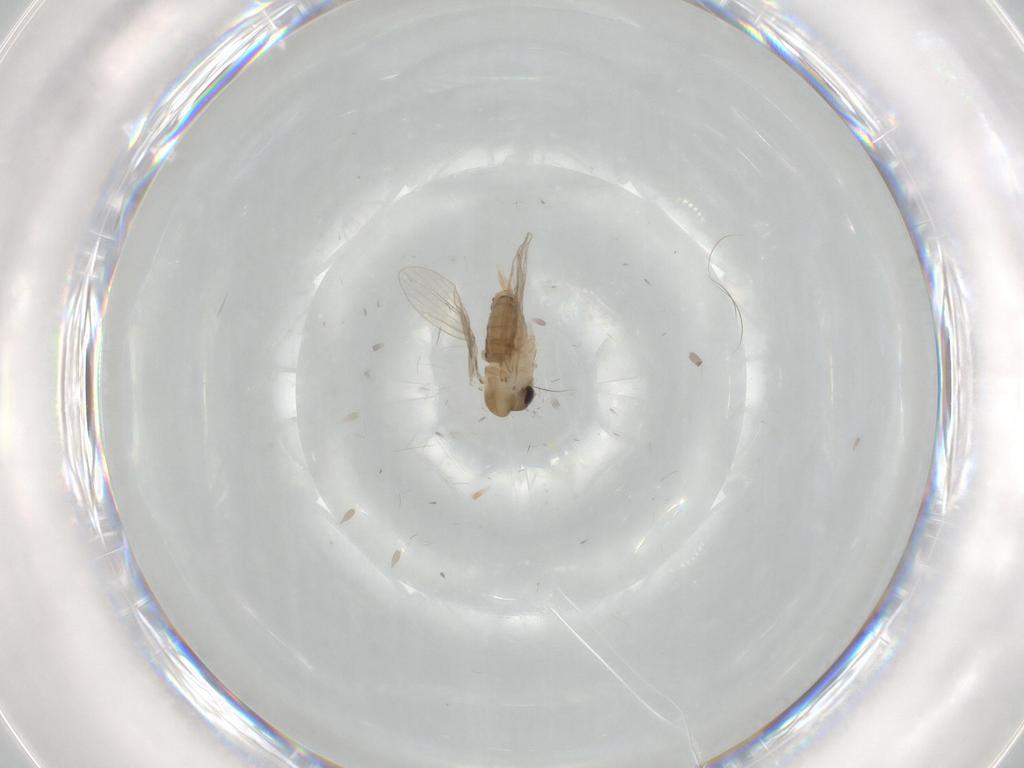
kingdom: Animalia
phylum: Arthropoda
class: Insecta
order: Diptera
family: Psychodidae
